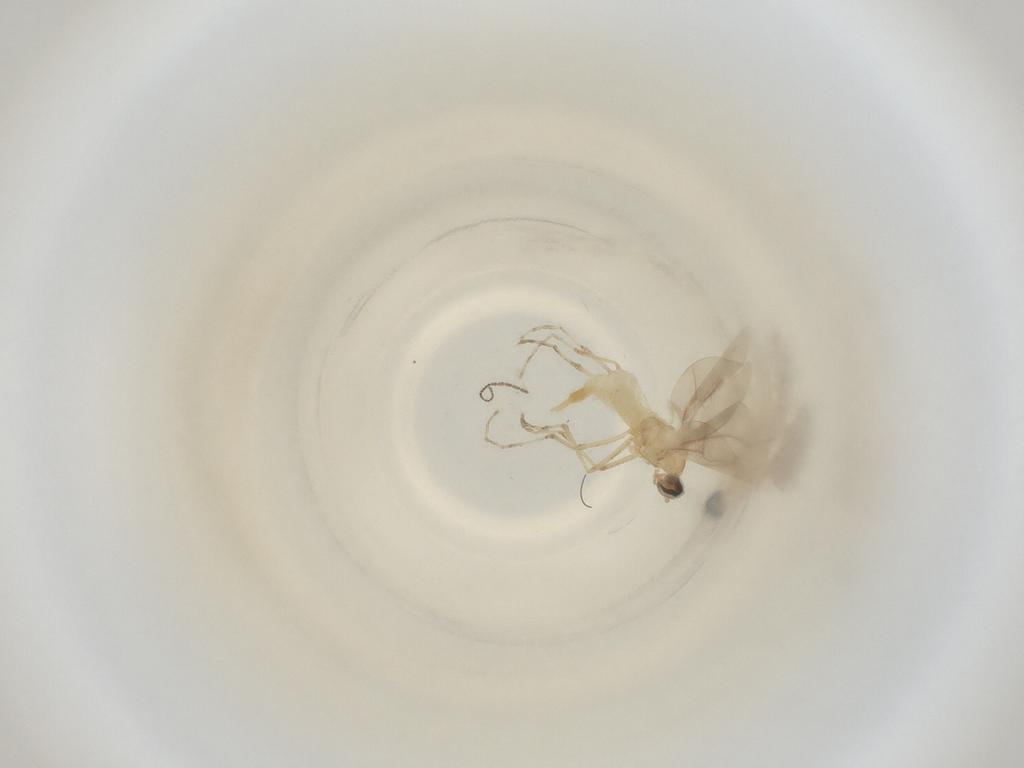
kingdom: Animalia
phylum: Arthropoda
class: Insecta
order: Diptera
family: Cecidomyiidae
